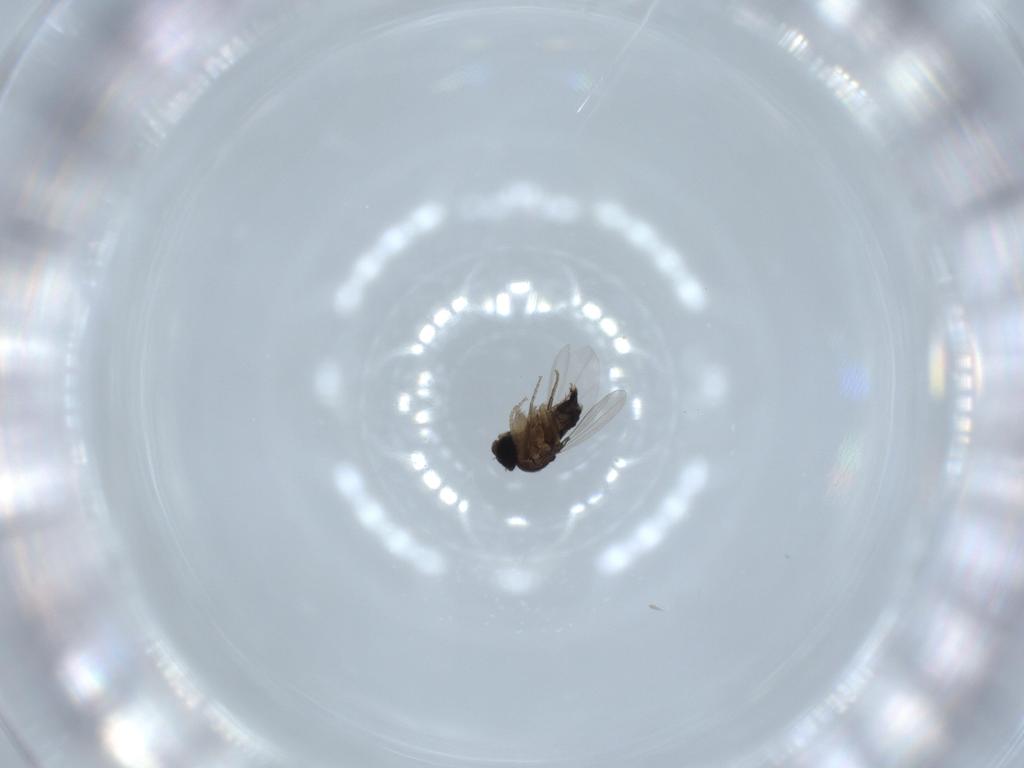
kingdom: Animalia
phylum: Arthropoda
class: Insecta
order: Diptera
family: Phoridae
